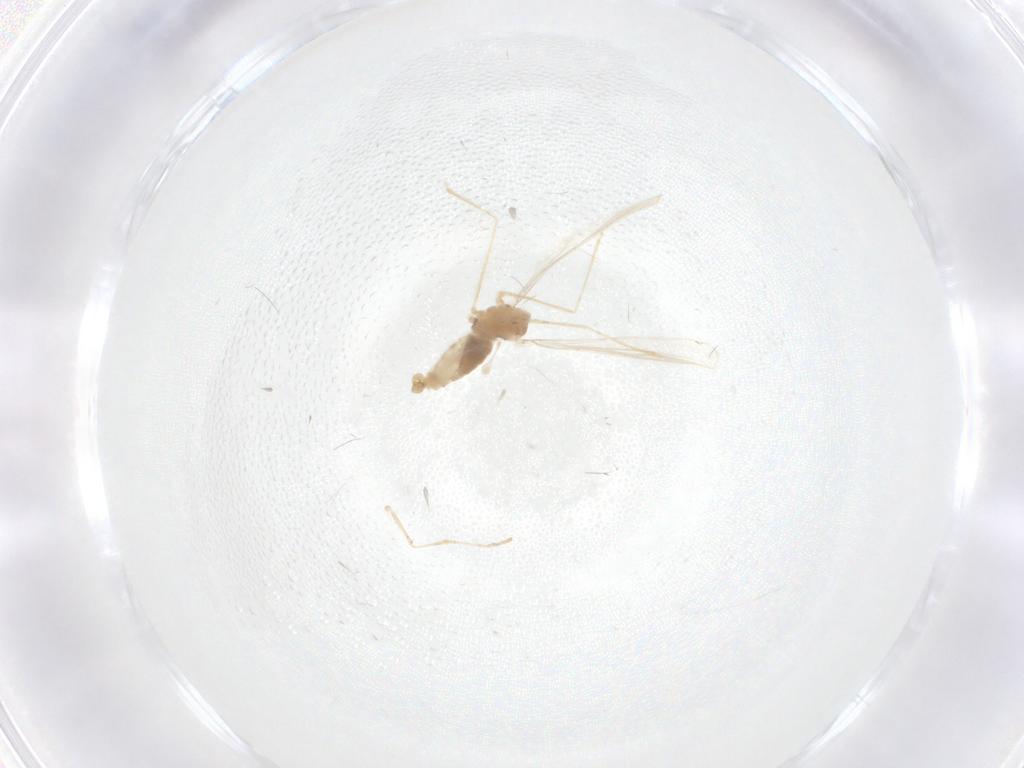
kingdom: Animalia
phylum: Arthropoda
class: Insecta
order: Diptera
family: Cecidomyiidae
